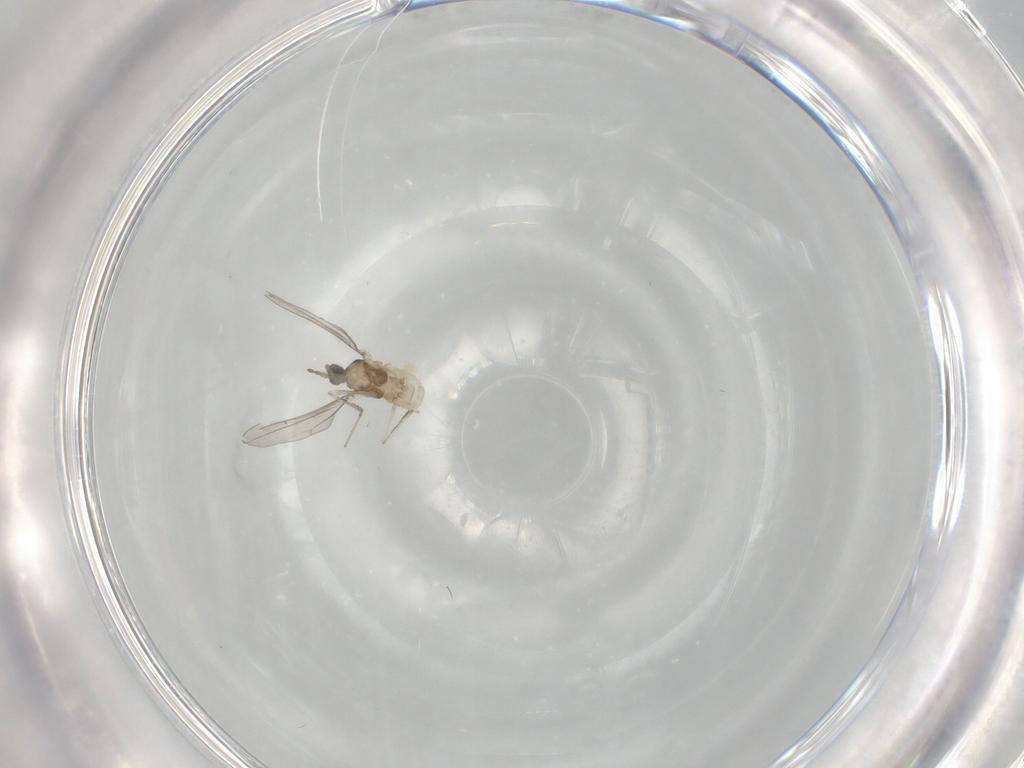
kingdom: Animalia
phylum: Arthropoda
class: Insecta
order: Diptera
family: Cecidomyiidae
